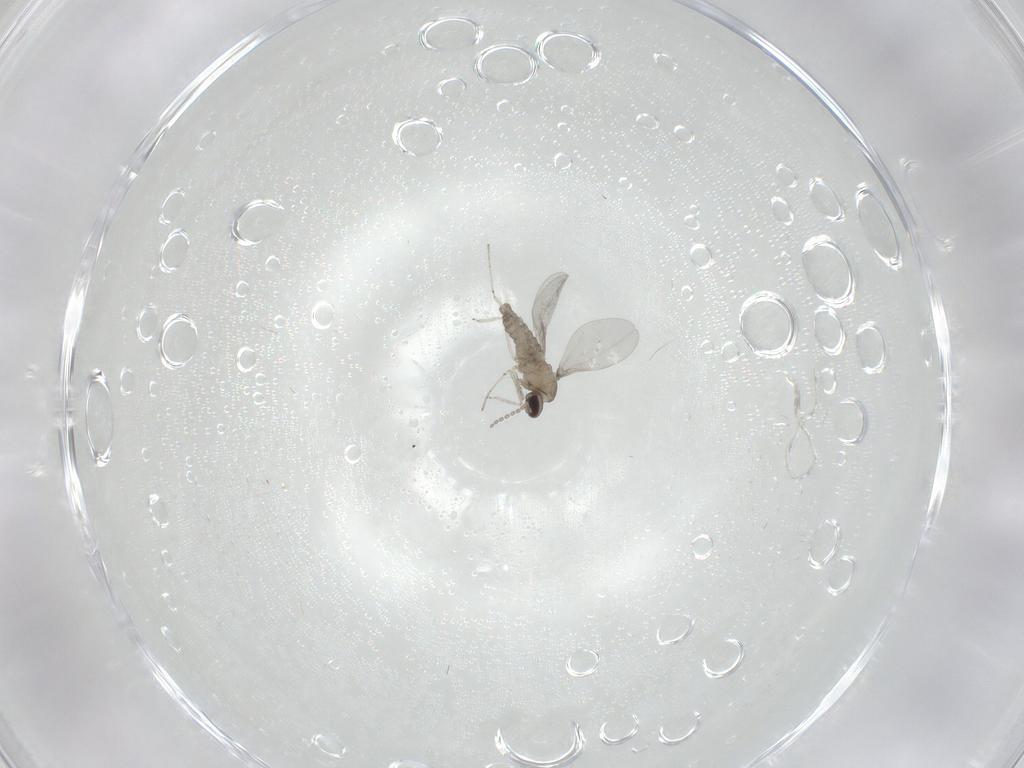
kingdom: Animalia
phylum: Arthropoda
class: Insecta
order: Diptera
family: Cecidomyiidae
